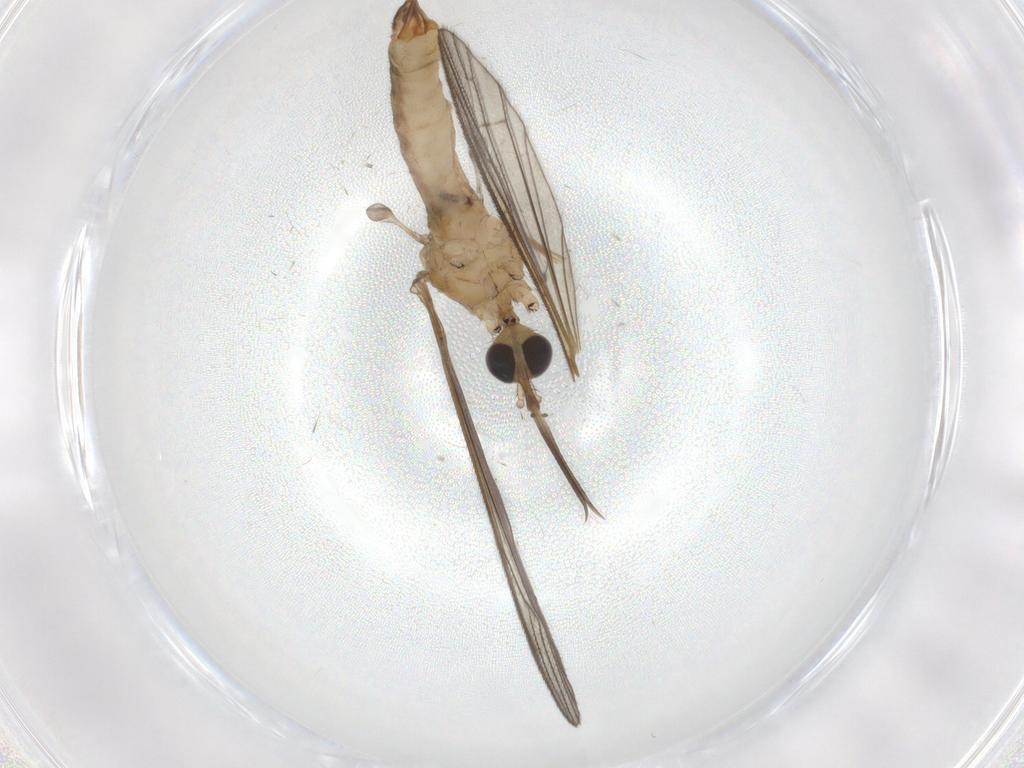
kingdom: Animalia
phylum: Arthropoda
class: Insecta
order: Diptera
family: Chironomidae
